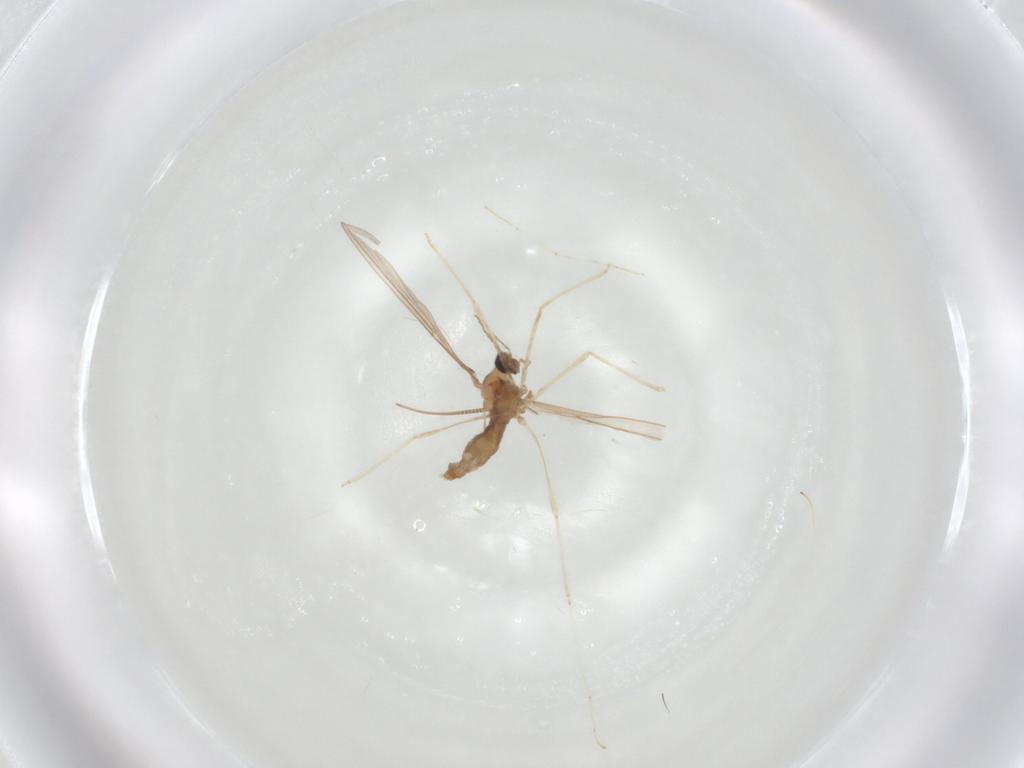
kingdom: Animalia
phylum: Arthropoda
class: Insecta
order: Diptera
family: Cecidomyiidae
